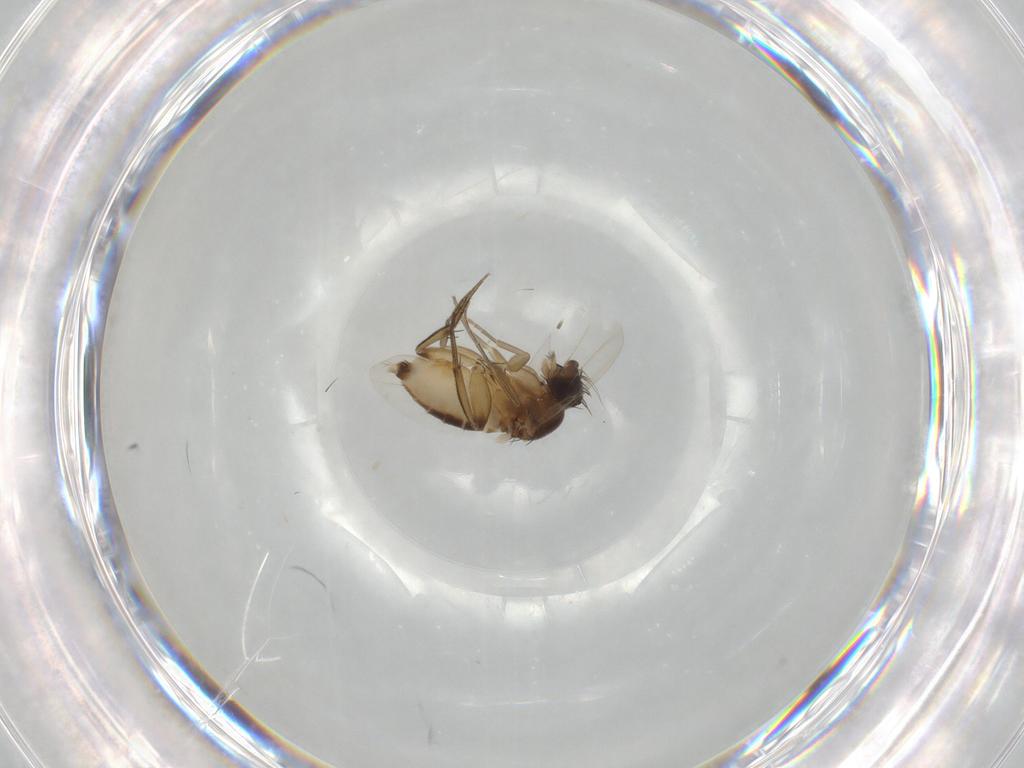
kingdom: Animalia
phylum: Arthropoda
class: Insecta
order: Diptera
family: Phoridae
